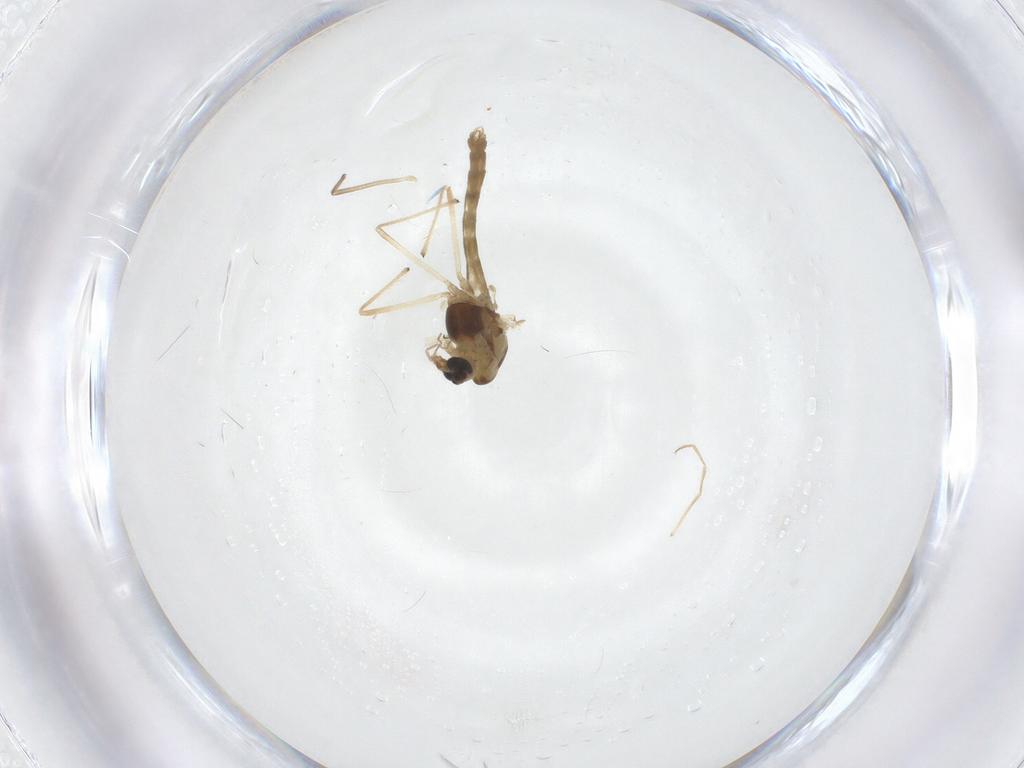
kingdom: Animalia
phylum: Arthropoda
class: Insecta
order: Diptera
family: Chironomidae
